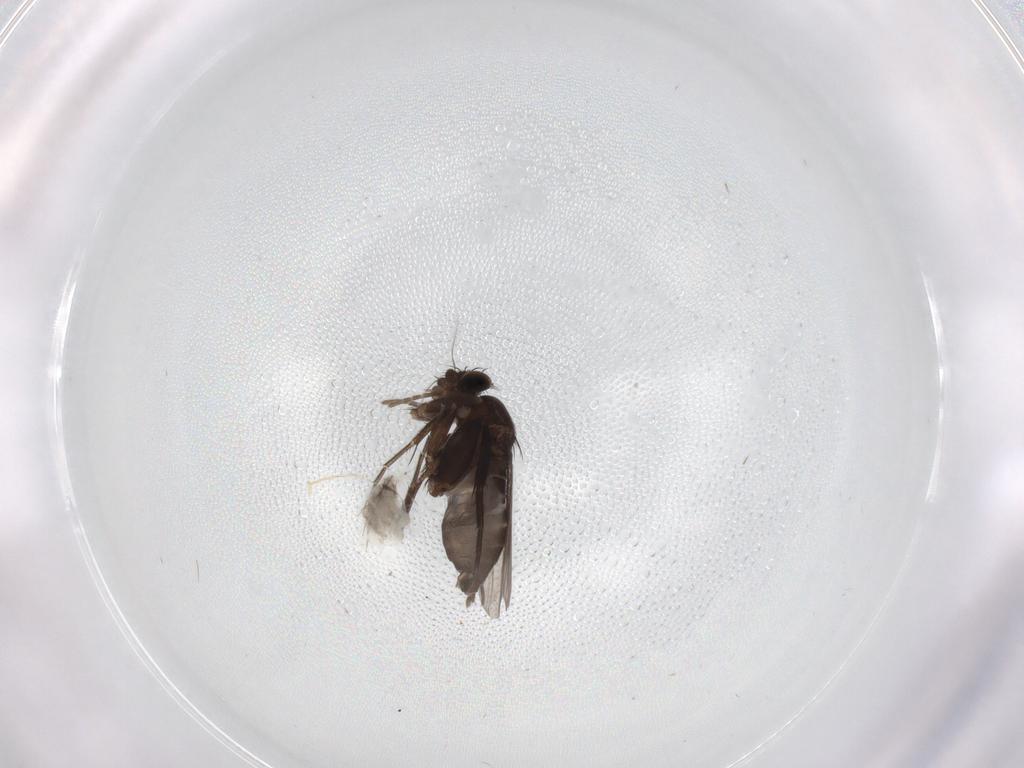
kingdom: Animalia
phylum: Arthropoda
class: Insecta
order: Diptera
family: Phoridae
